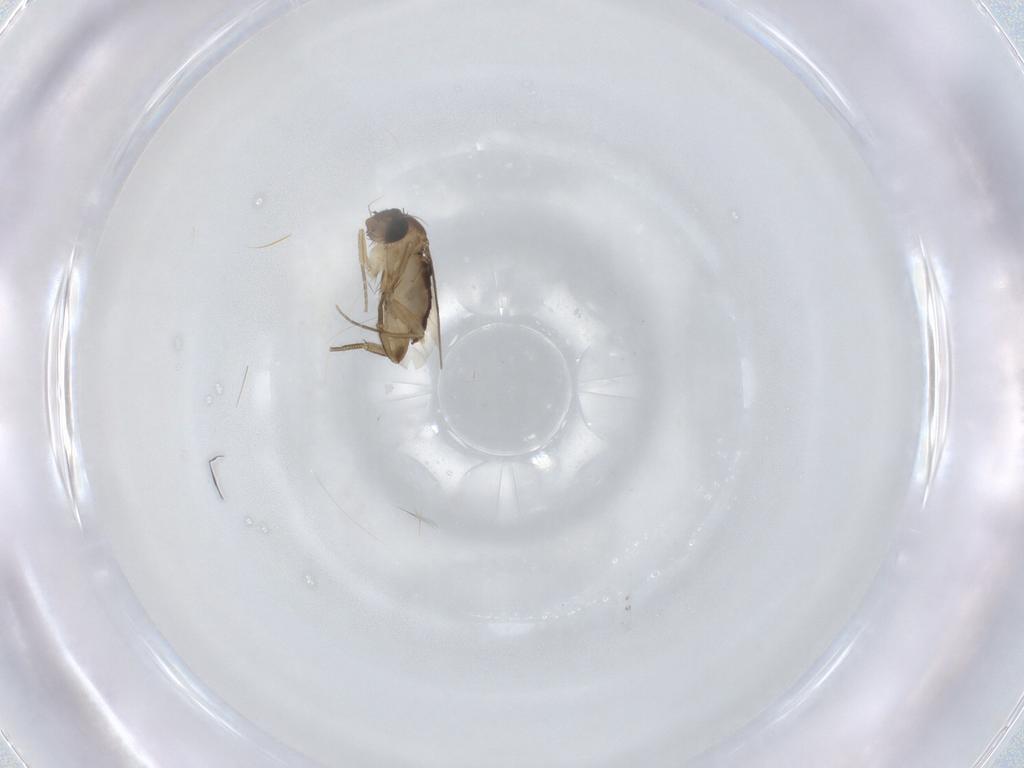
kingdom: Animalia
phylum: Arthropoda
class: Insecta
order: Diptera
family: Phoridae
